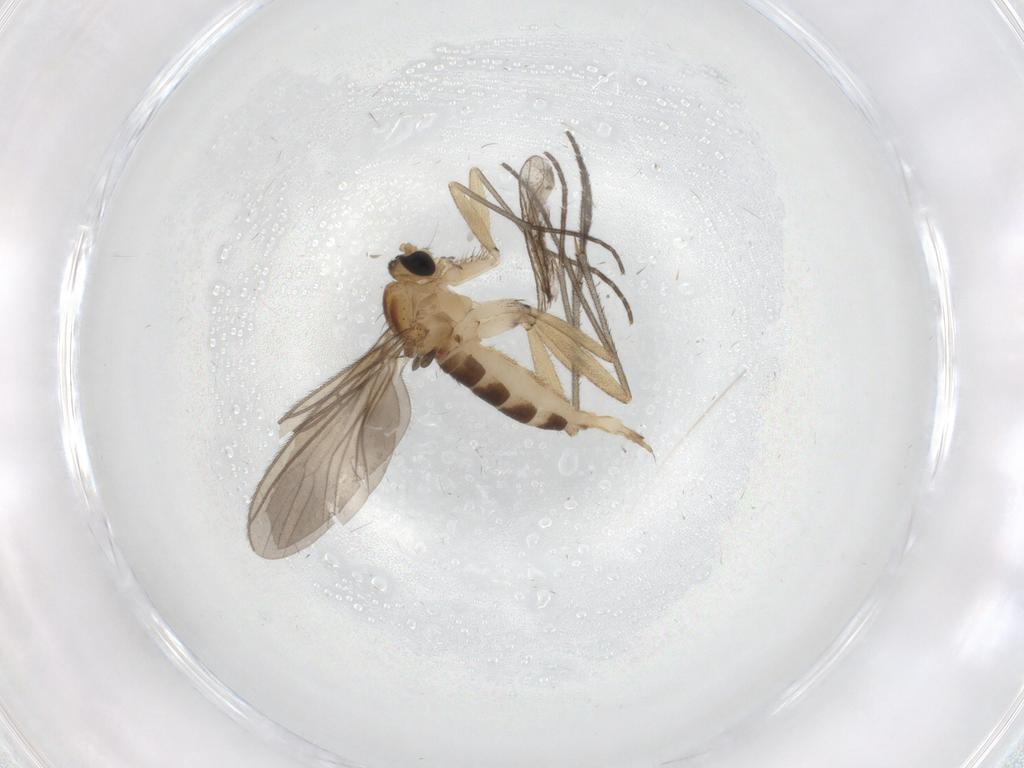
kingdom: Animalia
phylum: Arthropoda
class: Insecta
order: Diptera
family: Sciaridae
